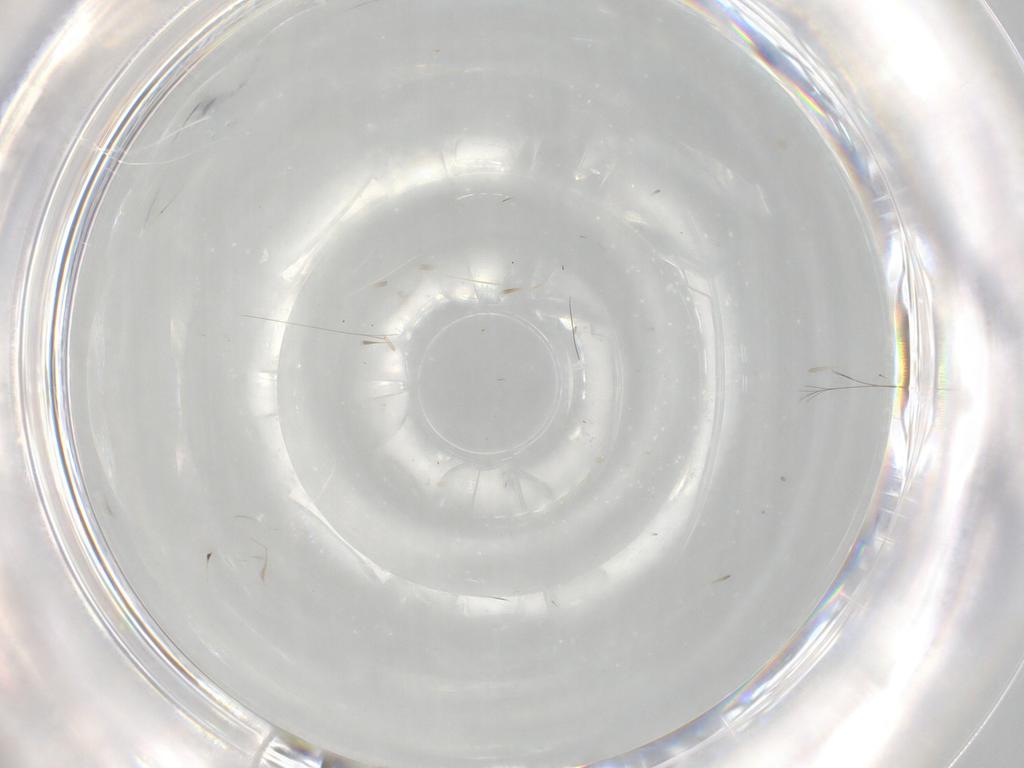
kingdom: Animalia
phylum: Arthropoda
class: Insecta
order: Diptera
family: Cecidomyiidae
